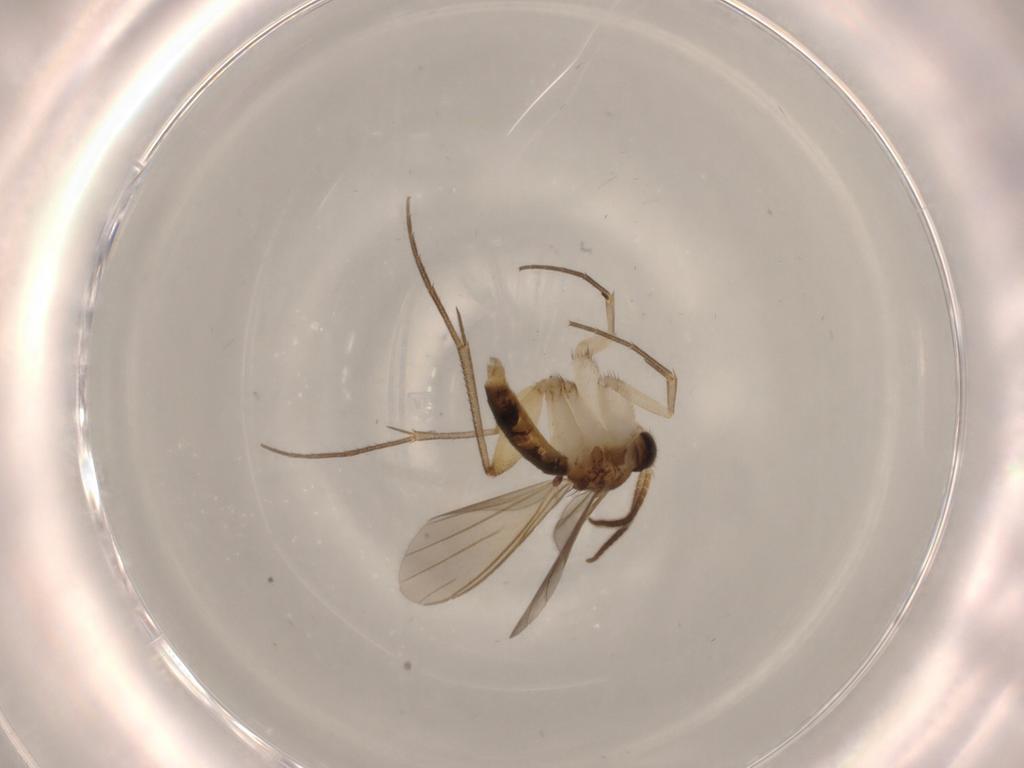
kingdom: Animalia
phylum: Arthropoda
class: Insecta
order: Diptera
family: Mycetophilidae
